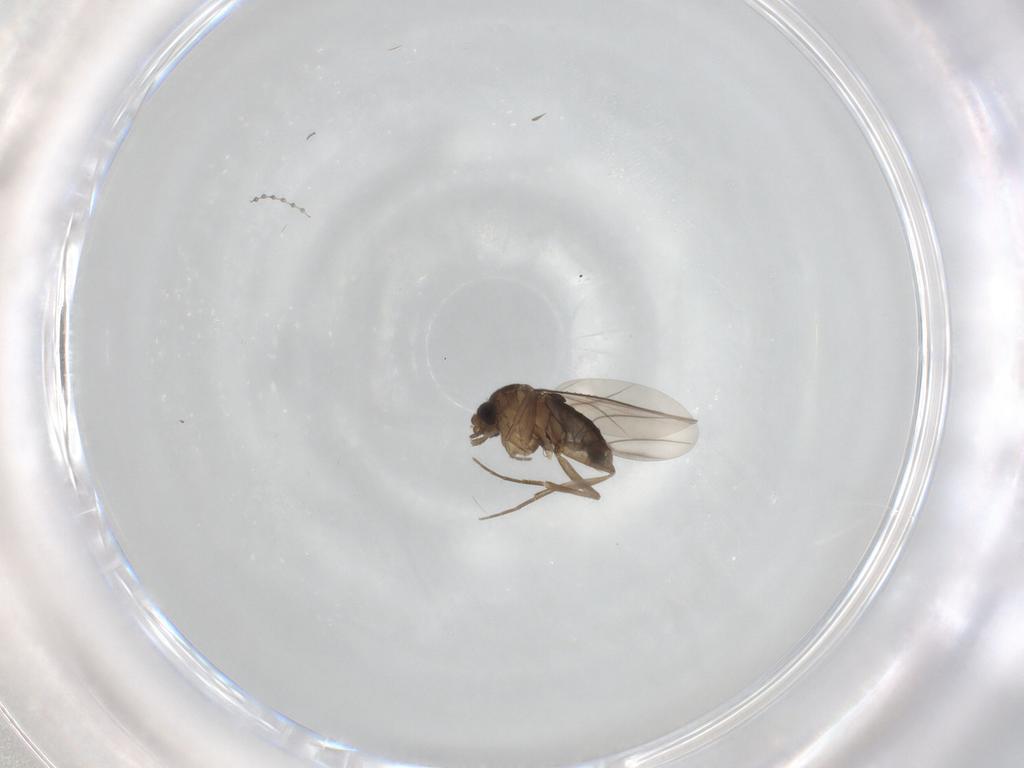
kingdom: Animalia
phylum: Arthropoda
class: Insecta
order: Diptera
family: Phoridae
